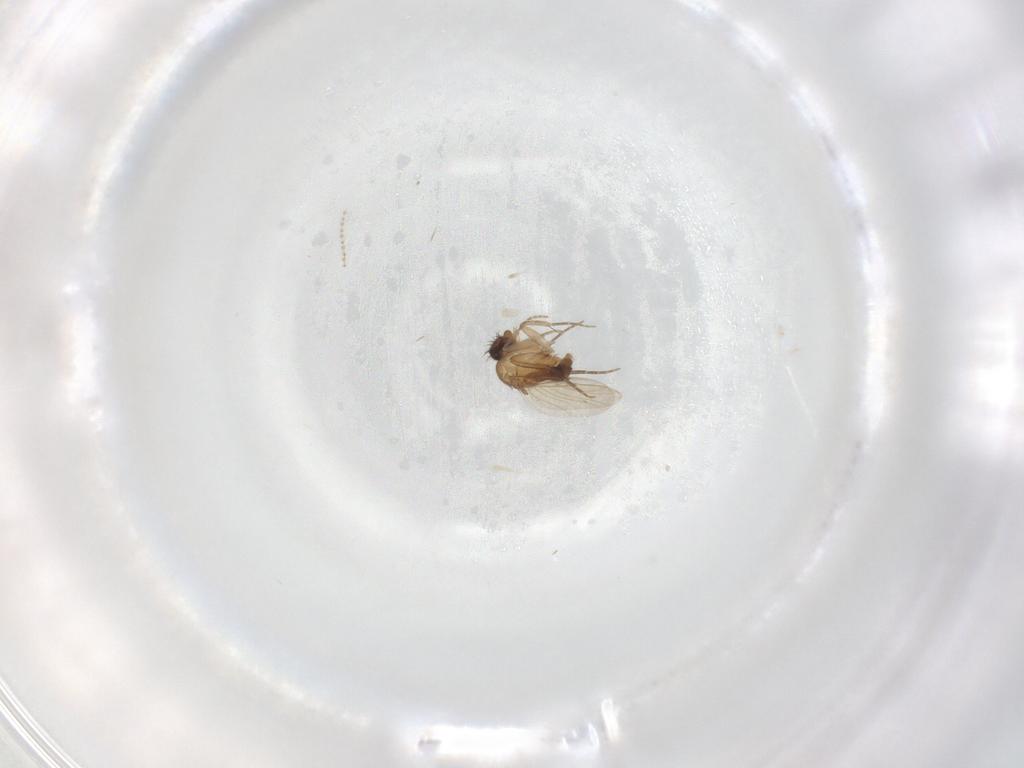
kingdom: Animalia
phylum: Arthropoda
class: Insecta
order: Diptera
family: Phoridae
